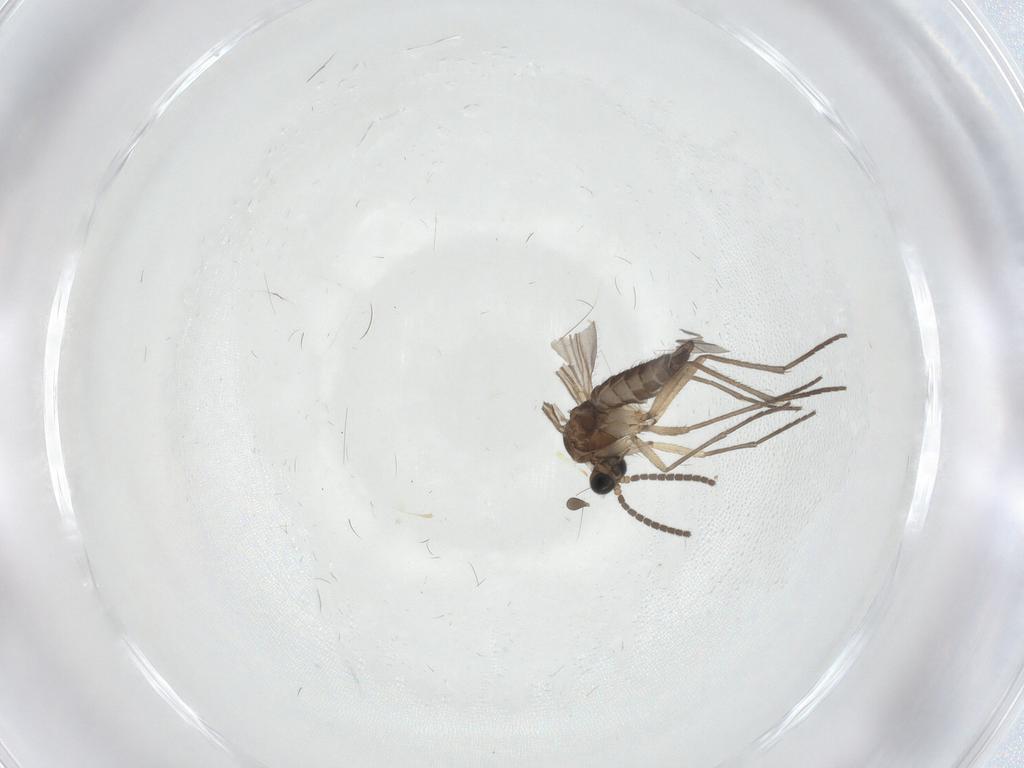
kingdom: Animalia
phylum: Arthropoda
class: Insecta
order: Diptera
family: Sciaridae
